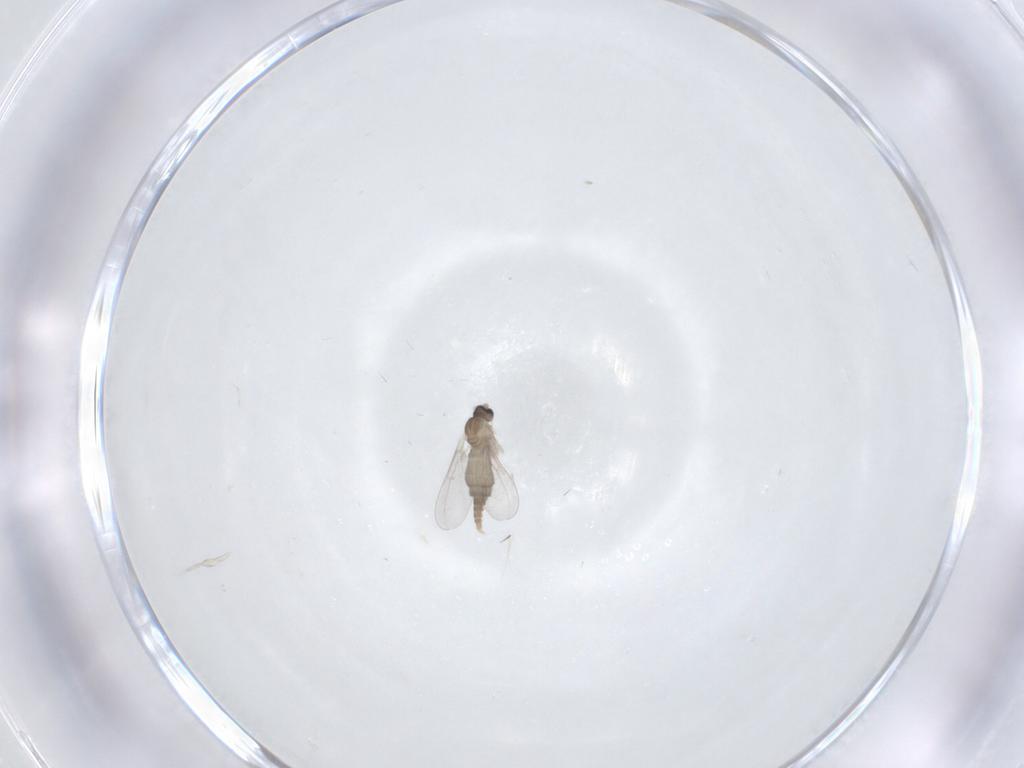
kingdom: Animalia
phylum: Arthropoda
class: Insecta
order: Diptera
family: Cecidomyiidae
